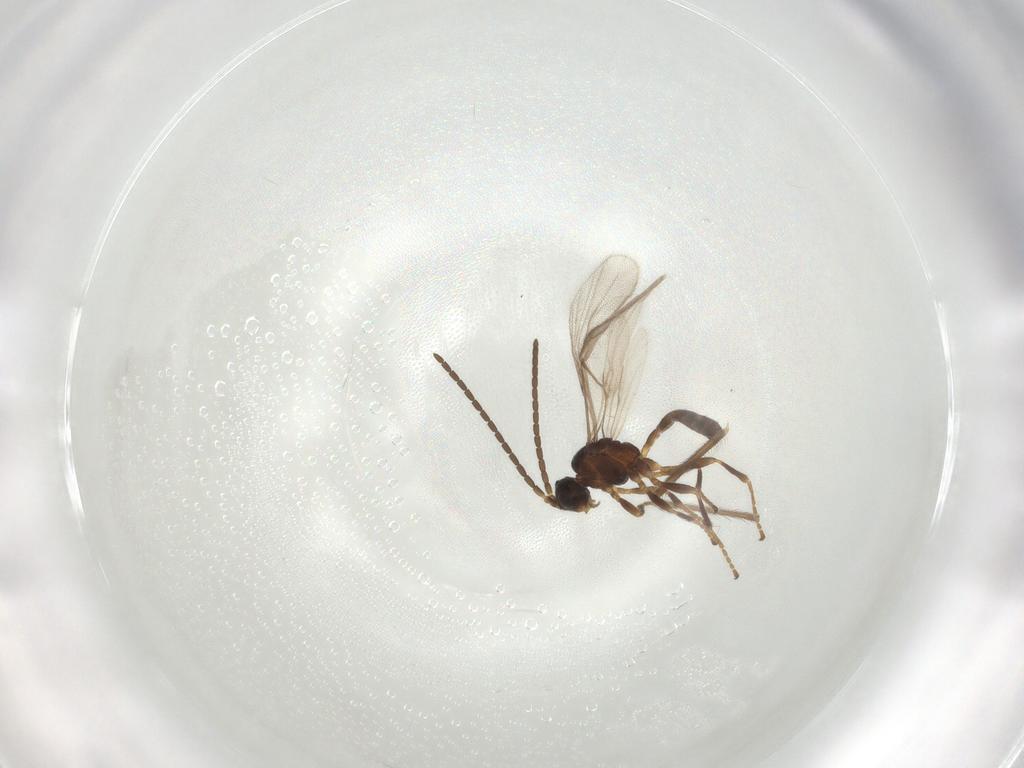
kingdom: Animalia
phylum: Arthropoda
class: Insecta
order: Hymenoptera
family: Braconidae
